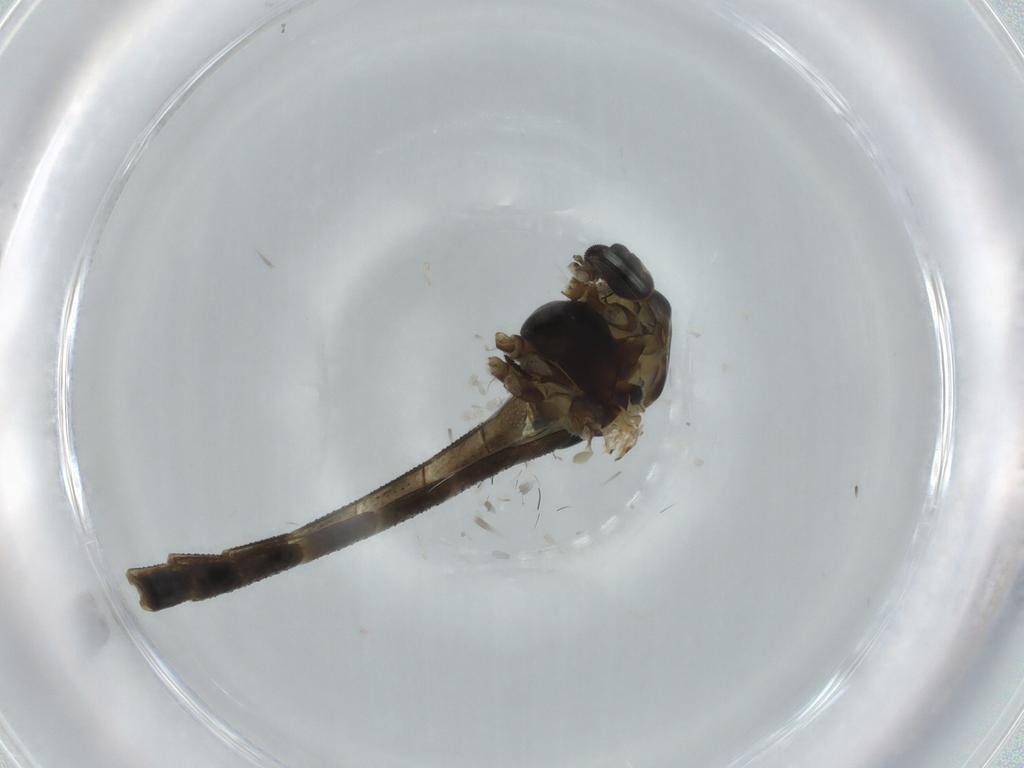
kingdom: Animalia
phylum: Arthropoda
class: Insecta
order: Diptera
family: Chironomidae
